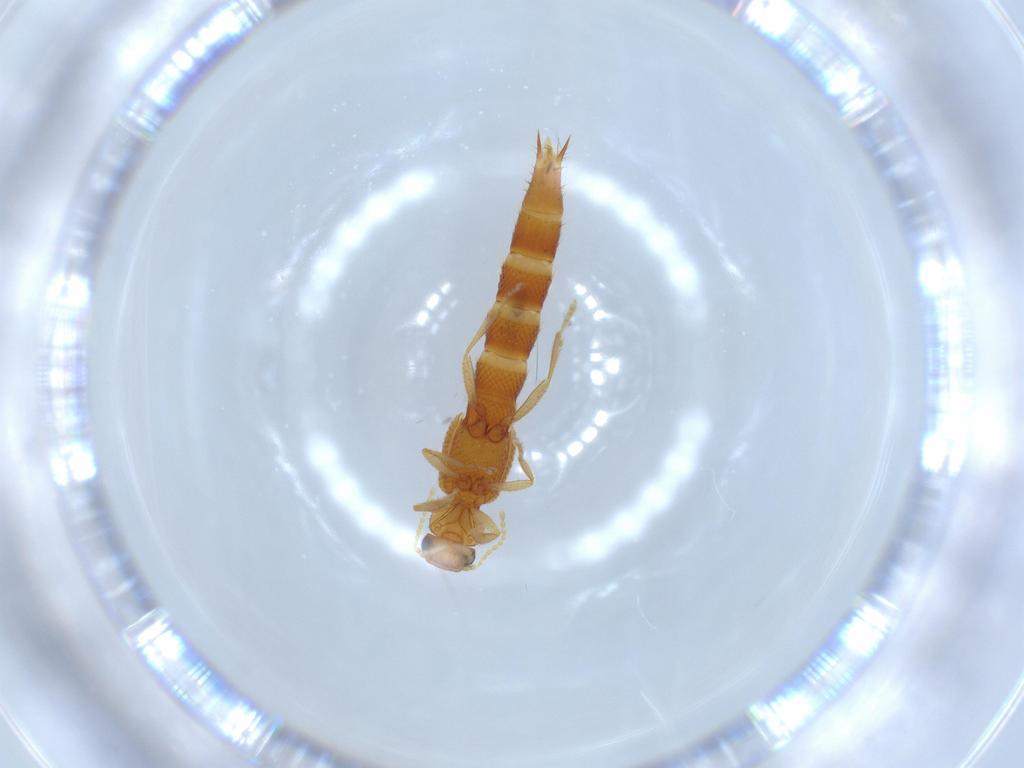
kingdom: Animalia
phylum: Arthropoda
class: Insecta
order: Coleoptera
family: Staphylinidae
